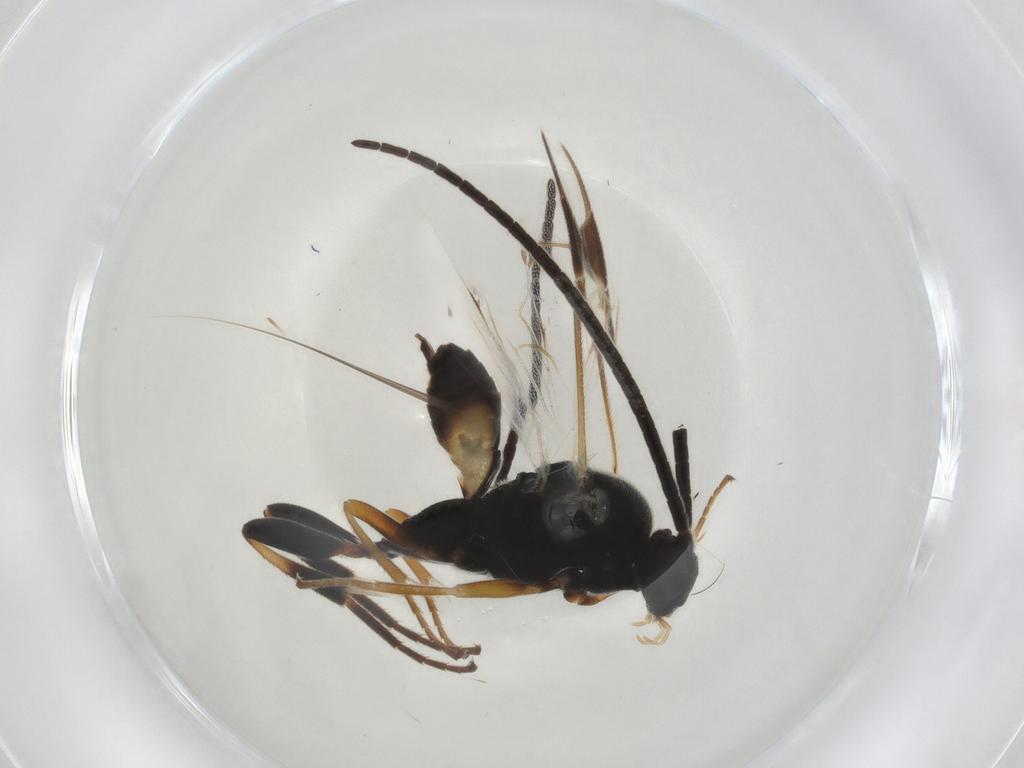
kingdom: Animalia
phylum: Arthropoda
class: Insecta
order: Hymenoptera
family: Braconidae
